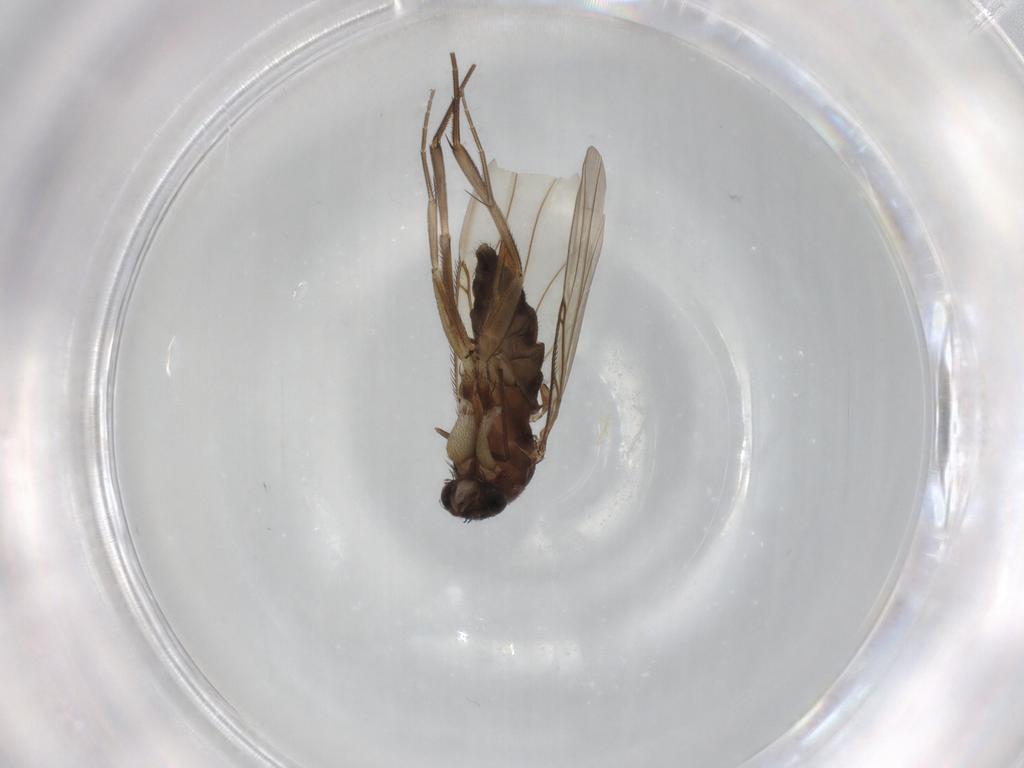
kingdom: Animalia
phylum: Arthropoda
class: Insecta
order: Diptera
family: Phoridae
